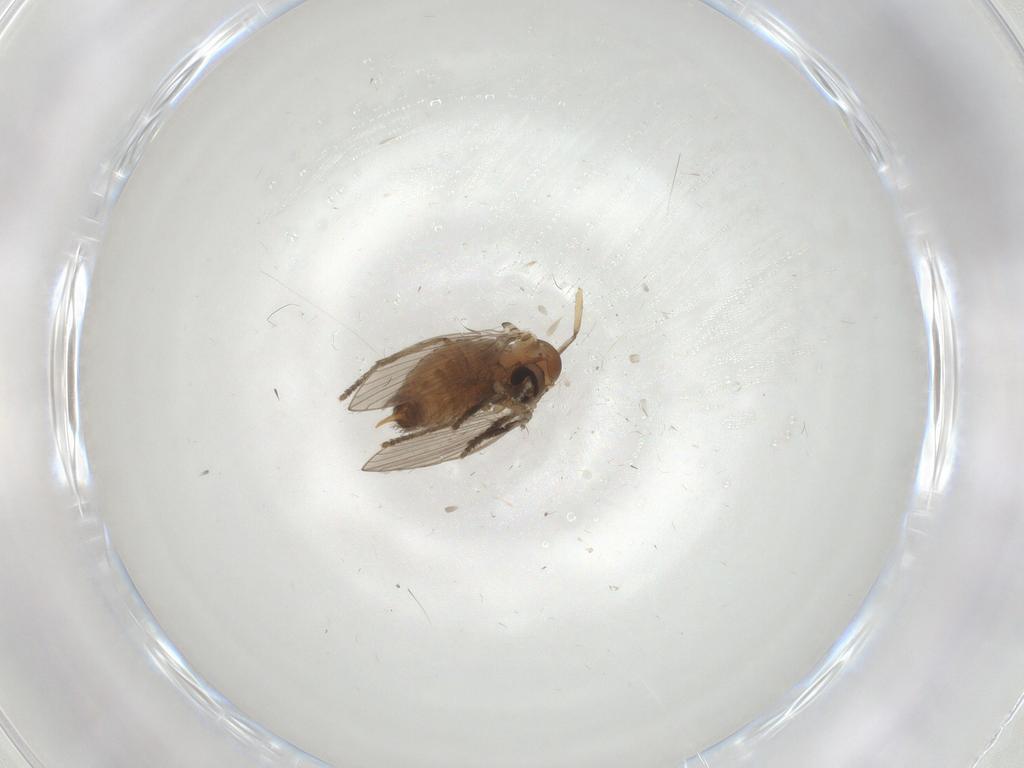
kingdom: Animalia
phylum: Arthropoda
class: Insecta
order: Diptera
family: Psychodidae
